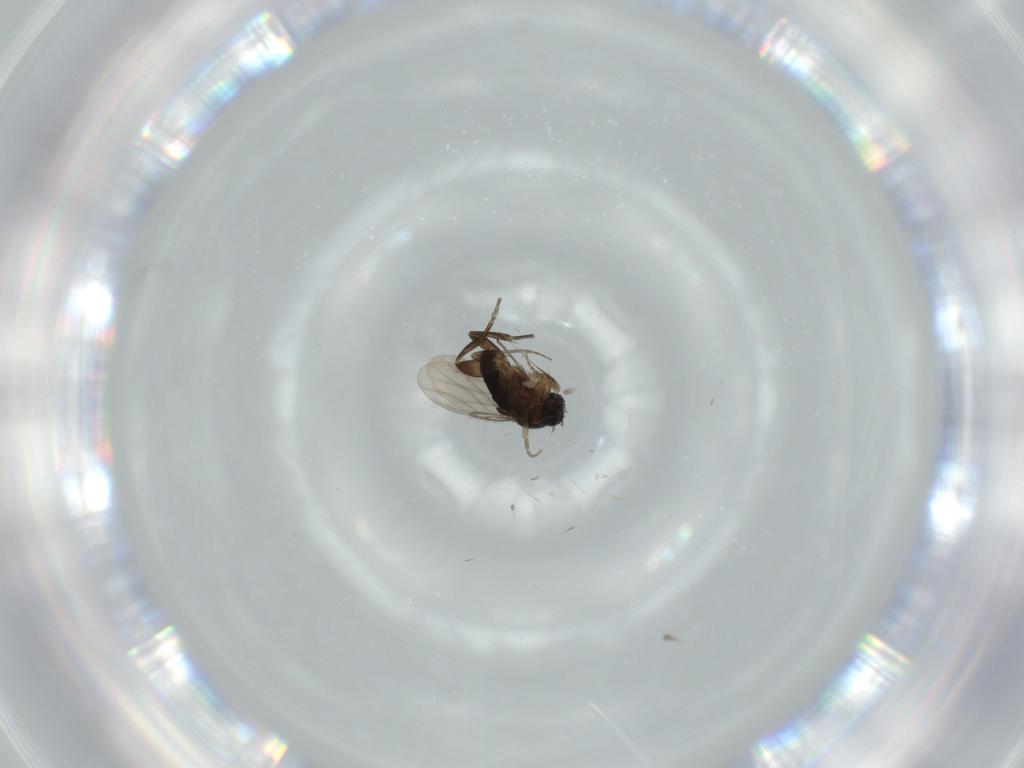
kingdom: Animalia
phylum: Arthropoda
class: Insecta
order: Diptera
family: Phoridae
